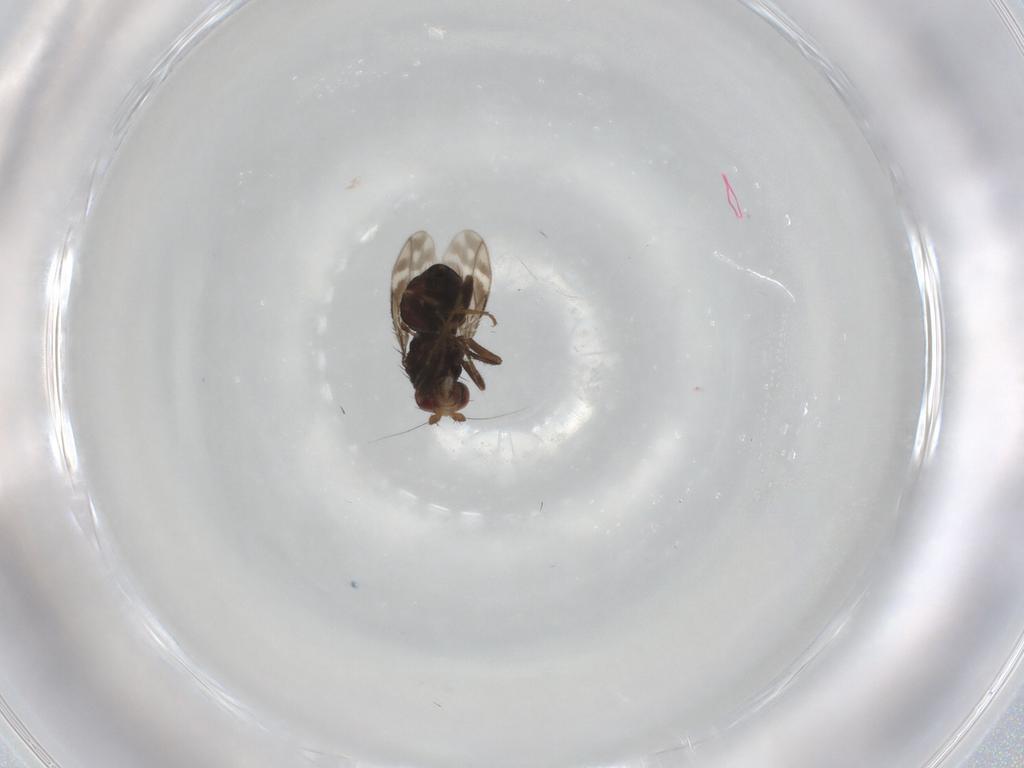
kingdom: Animalia
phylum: Arthropoda
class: Insecta
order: Diptera
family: Sphaeroceridae
